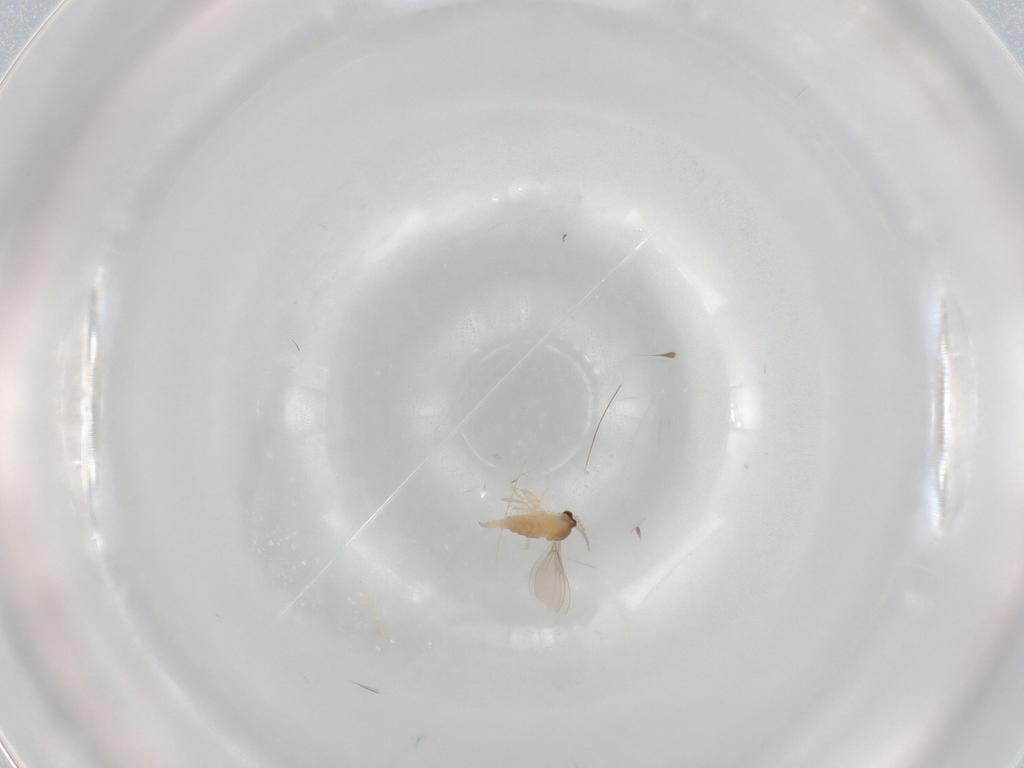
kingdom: Animalia
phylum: Arthropoda
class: Insecta
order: Diptera
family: Cecidomyiidae
